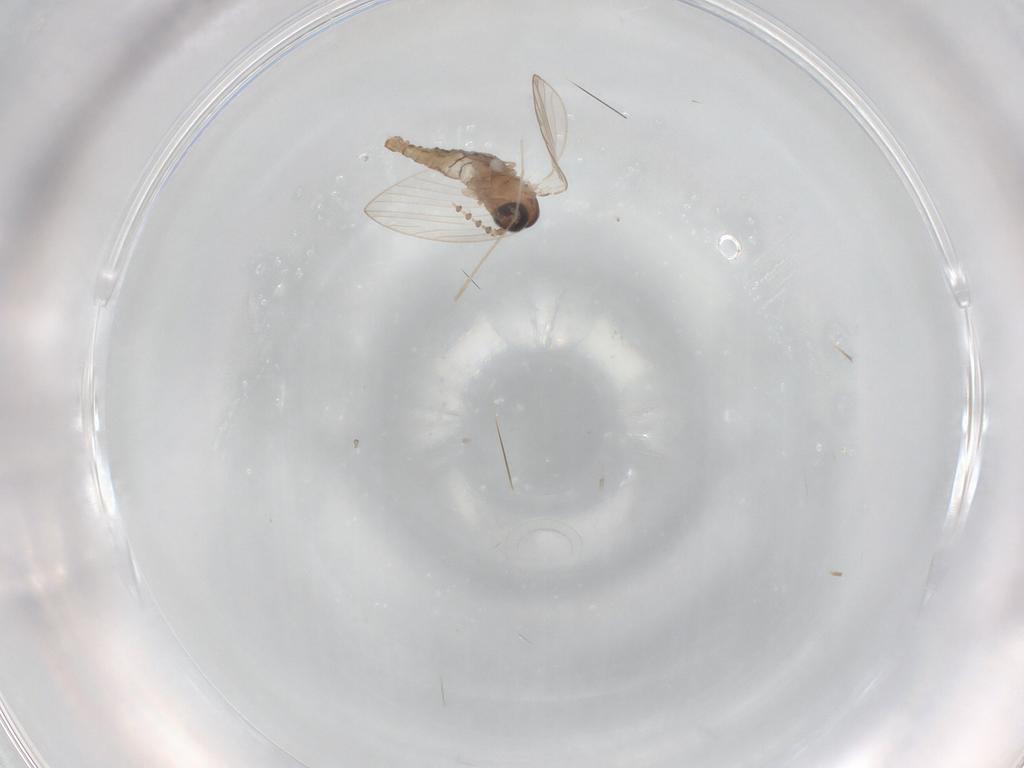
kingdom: Animalia
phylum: Arthropoda
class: Insecta
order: Diptera
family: Psychodidae
